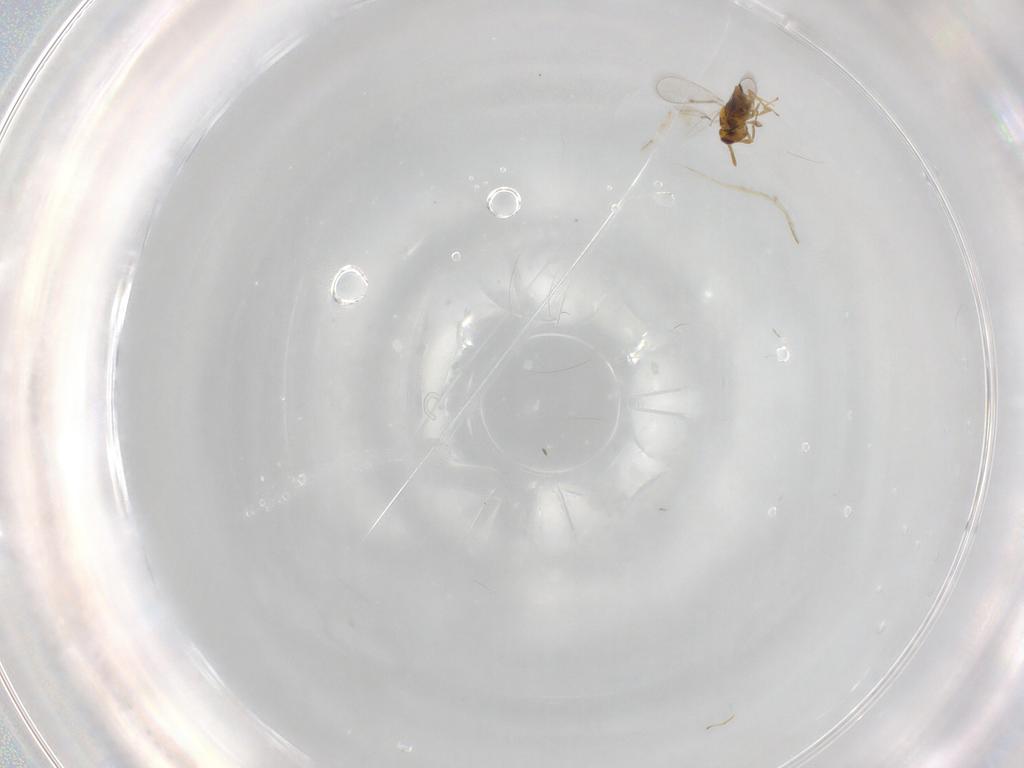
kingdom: Animalia
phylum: Arthropoda
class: Insecta
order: Hymenoptera
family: Aphelinidae
